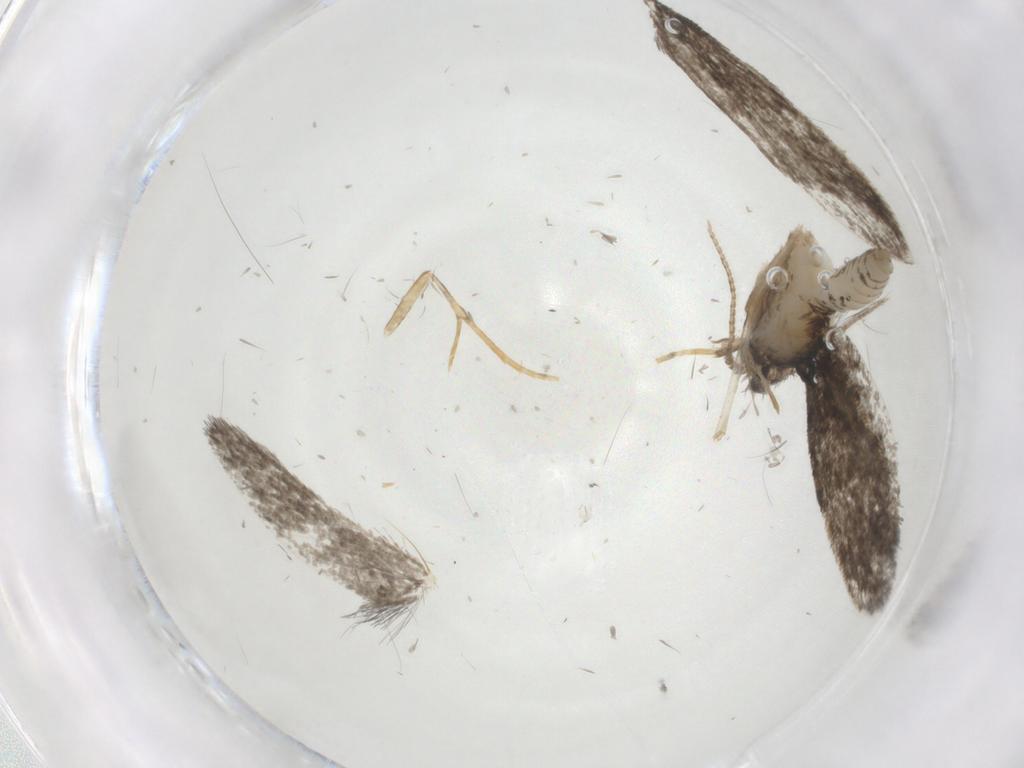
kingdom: Animalia
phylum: Arthropoda
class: Insecta
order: Lepidoptera
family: Psychidae
